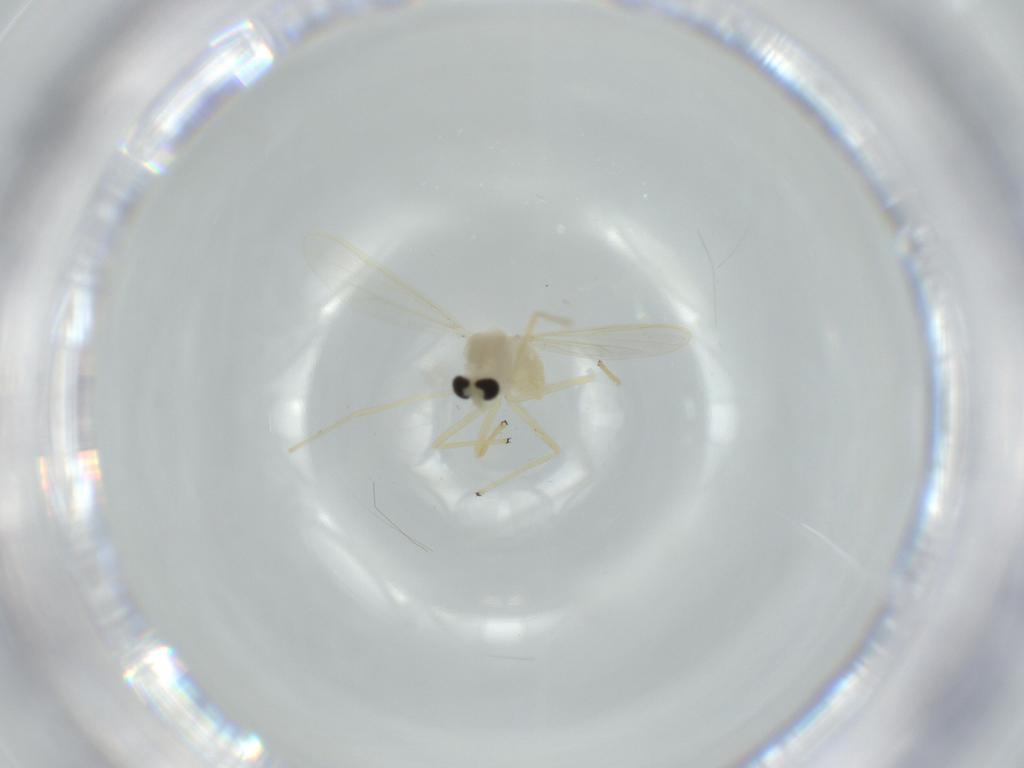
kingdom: Animalia
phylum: Arthropoda
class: Insecta
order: Diptera
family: Chironomidae
